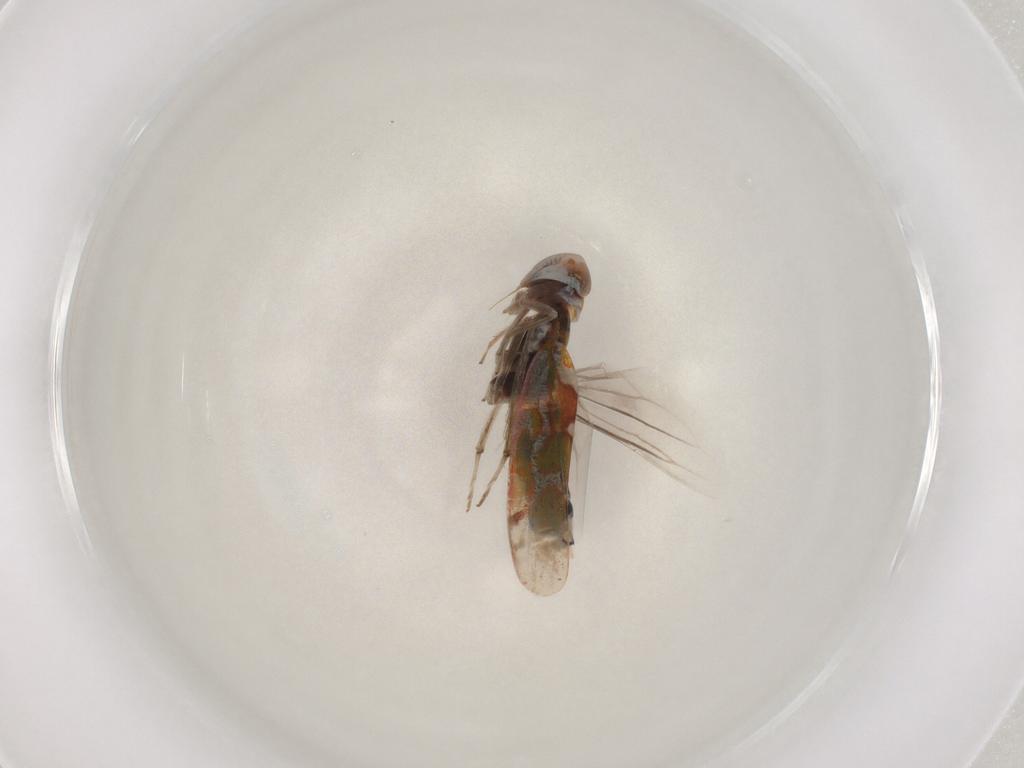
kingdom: Animalia
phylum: Arthropoda
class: Insecta
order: Hemiptera
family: Cicadellidae
